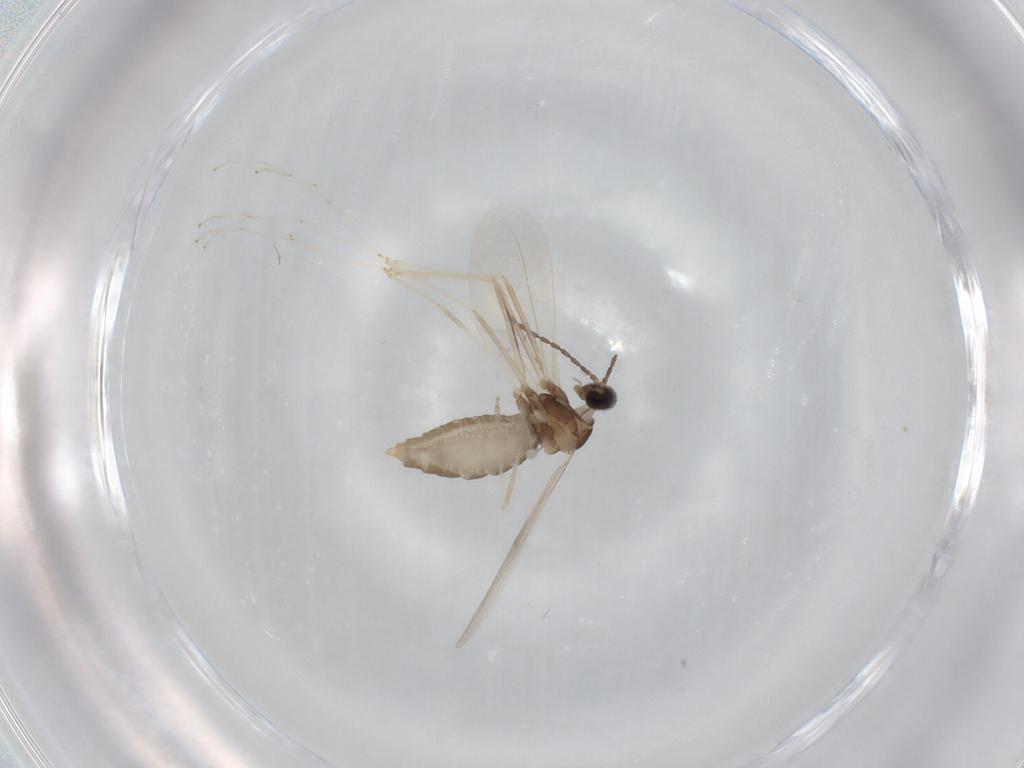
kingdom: Animalia
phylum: Arthropoda
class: Insecta
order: Diptera
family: Cecidomyiidae
